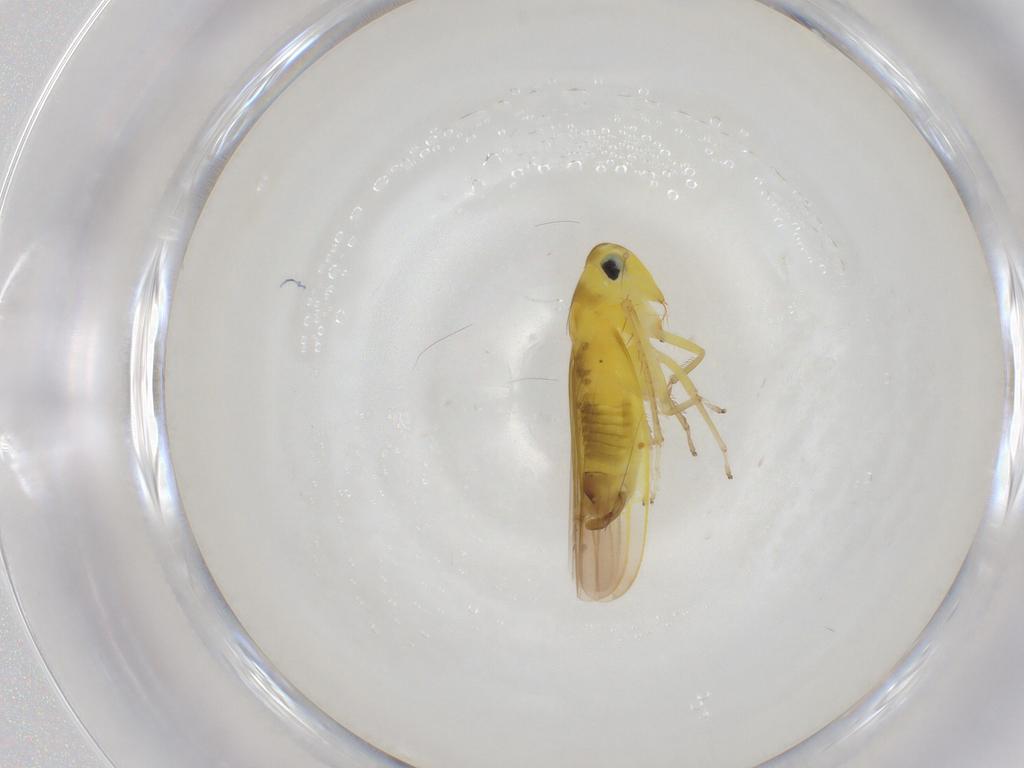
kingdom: Animalia
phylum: Arthropoda
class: Insecta
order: Hemiptera
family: Cicadellidae
